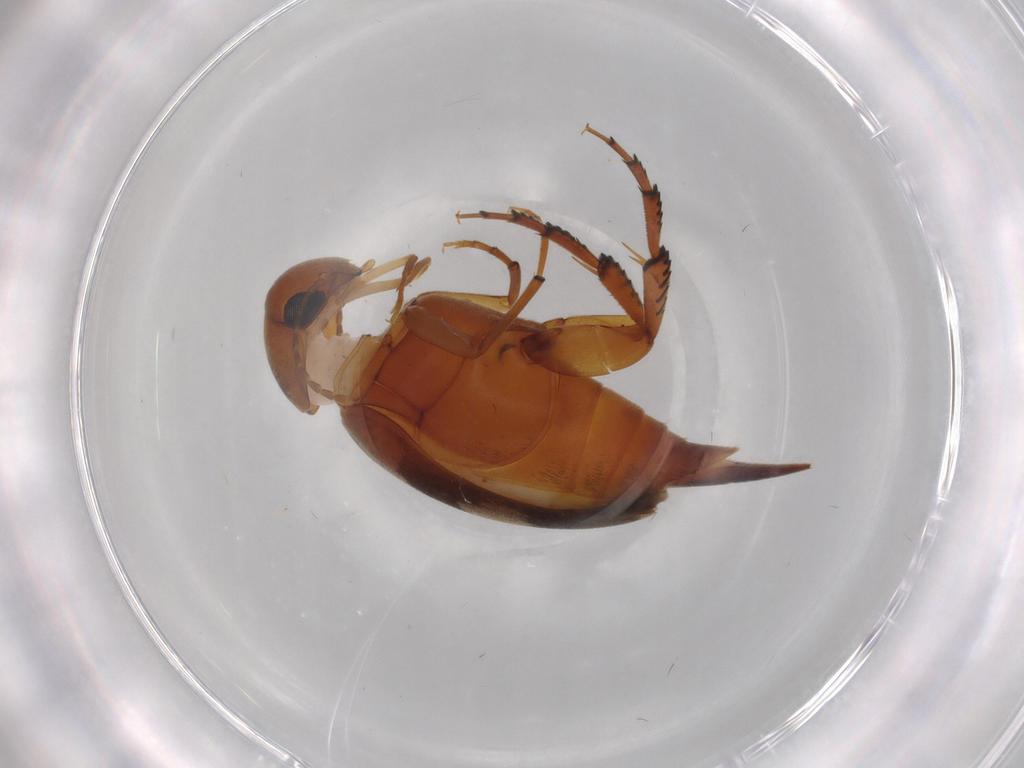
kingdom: Animalia
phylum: Arthropoda
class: Insecta
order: Coleoptera
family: Mordellidae
